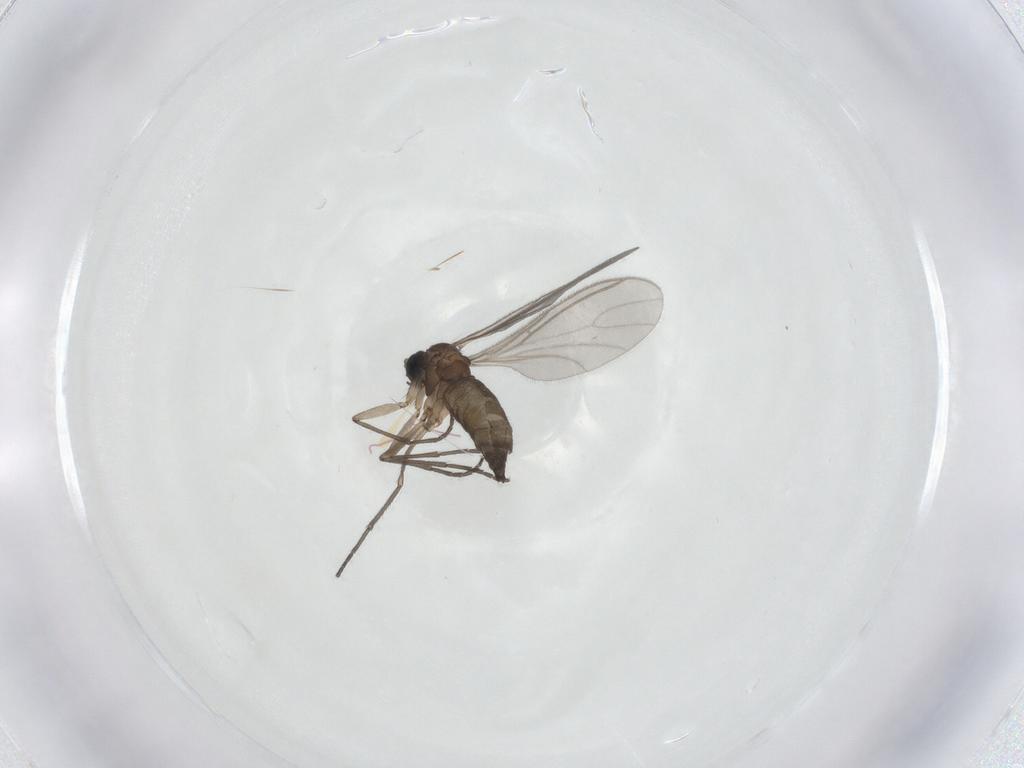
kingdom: Animalia
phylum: Arthropoda
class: Insecta
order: Diptera
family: Sciaridae
